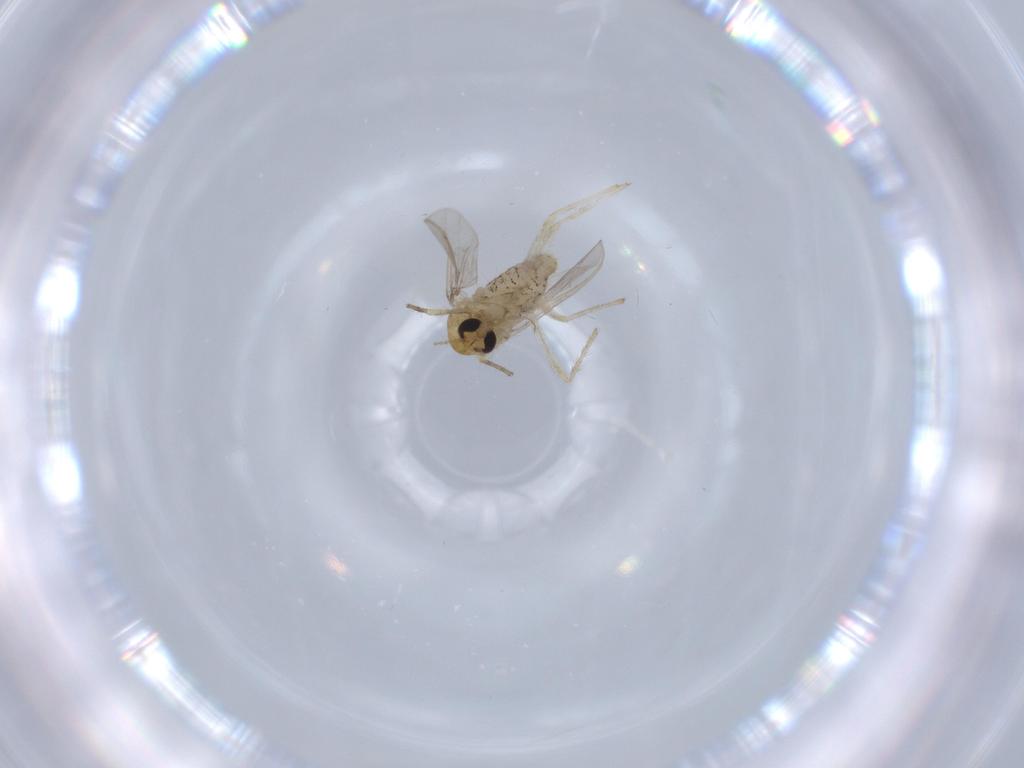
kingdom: Animalia
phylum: Arthropoda
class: Insecta
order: Diptera
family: Chironomidae
